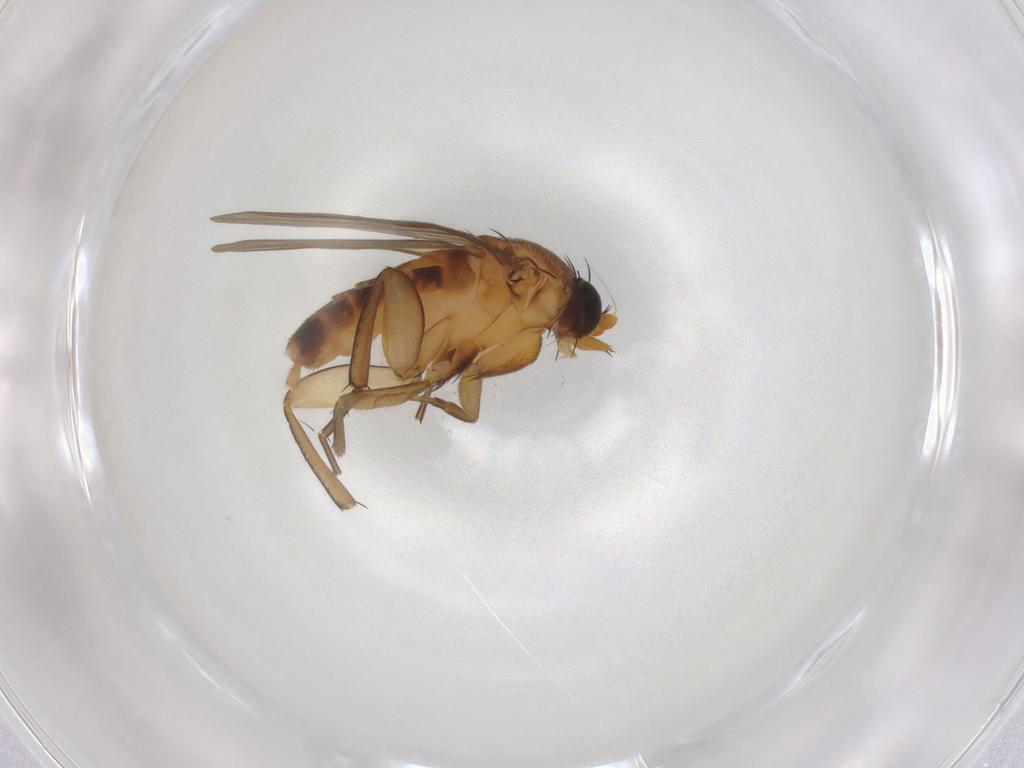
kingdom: Animalia
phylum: Arthropoda
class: Insecta
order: Diptera
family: Phoridae
